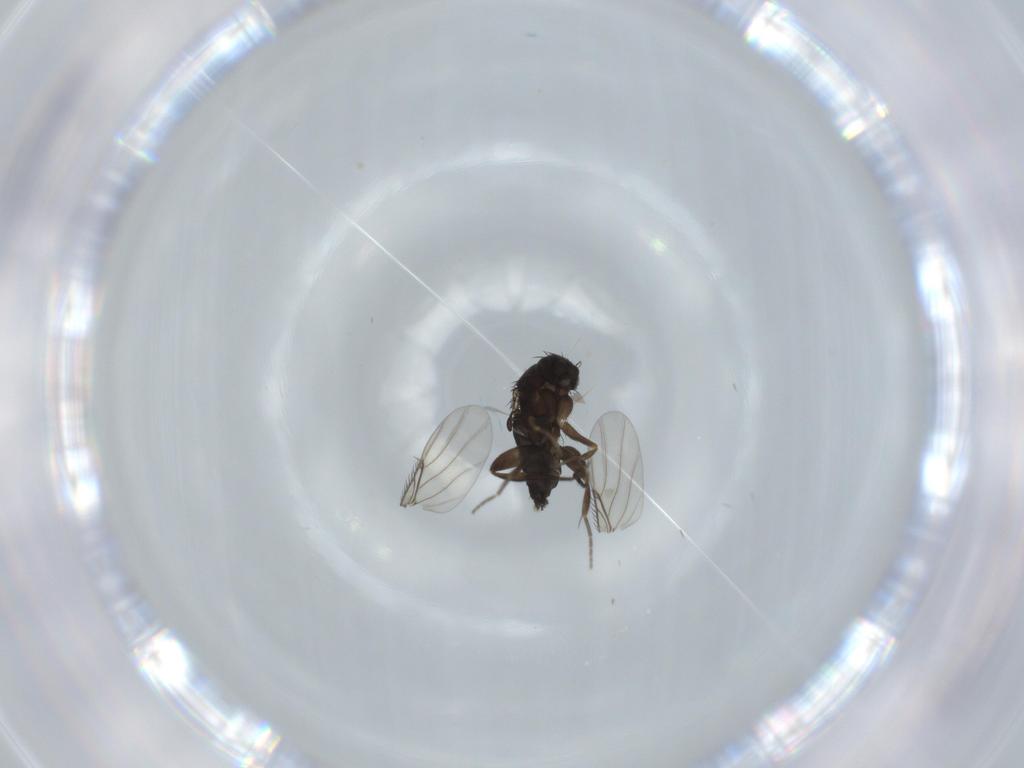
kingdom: Animalia
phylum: Arthropoda
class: Insecta
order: Diptera
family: Phoridae
